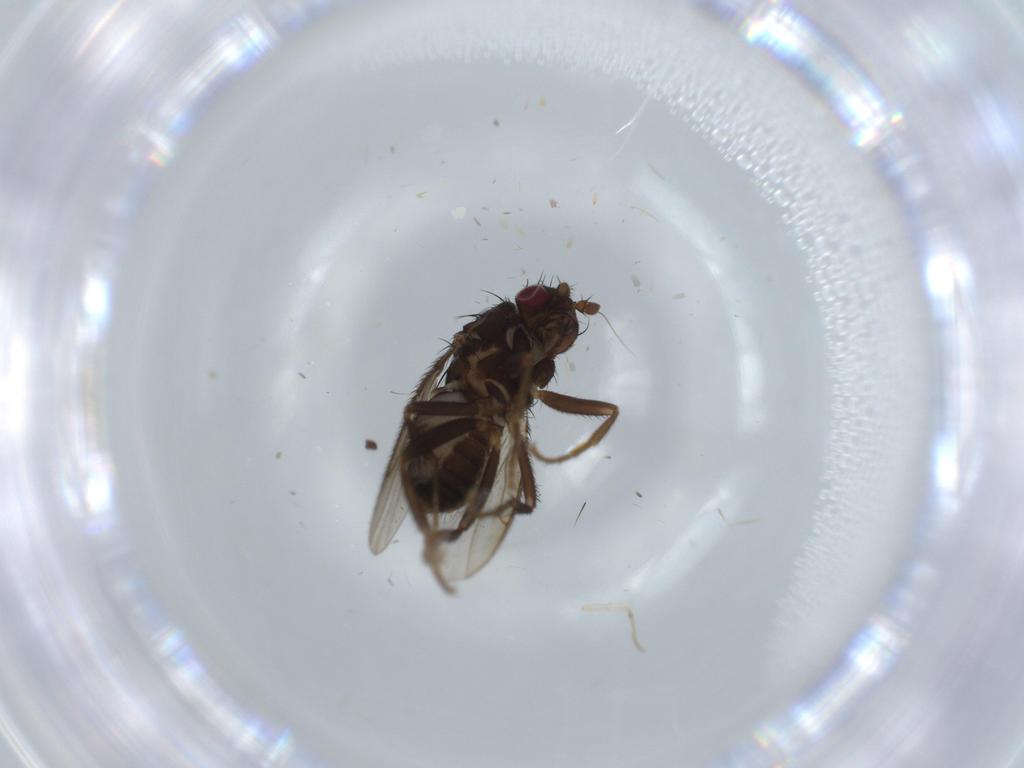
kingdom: Animalia
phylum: Arthropoda
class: Insecta
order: Diptera
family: Sphaeroceridae
